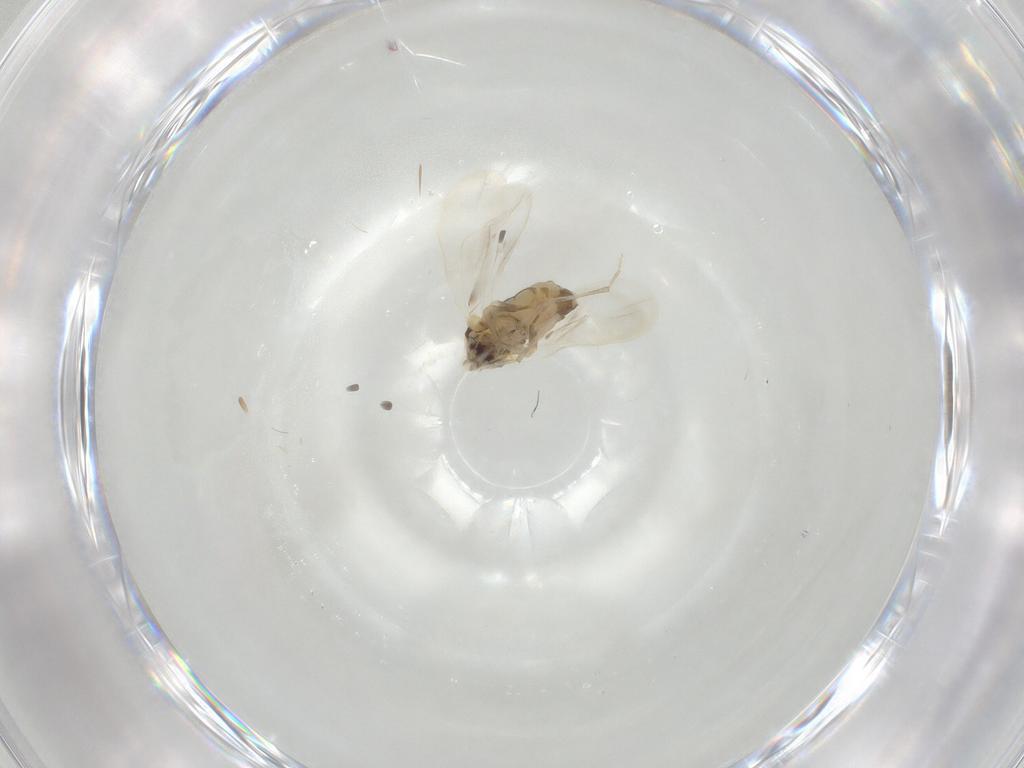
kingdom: Animalia
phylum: Arthropoda
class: Insecta
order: Hemiptera
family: Aleyrodidae
